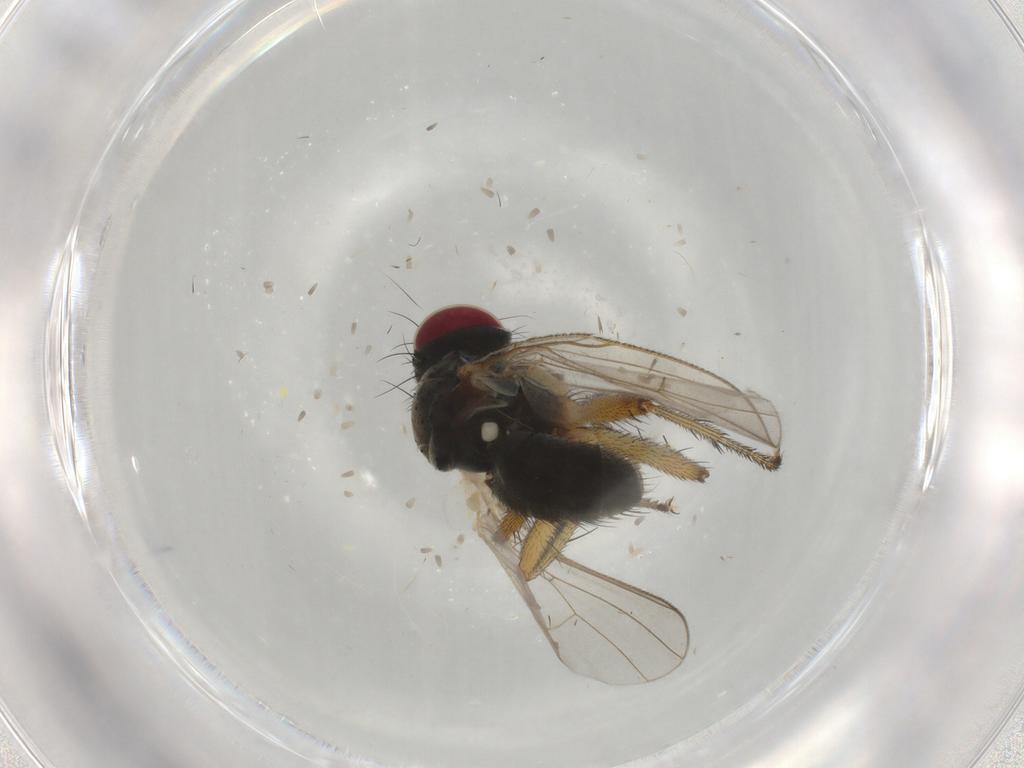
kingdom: Animalia
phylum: Arthropoda
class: Insecta
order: Diptera
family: Muscidae
